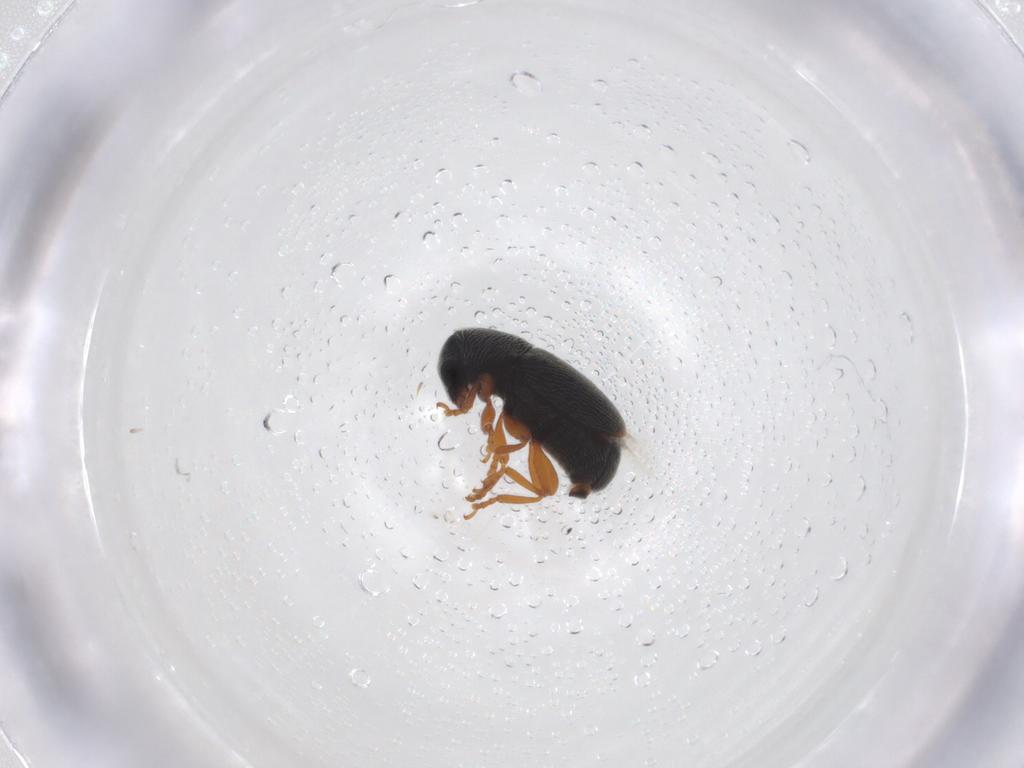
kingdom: Animalia
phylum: Arthropoda
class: Insecta
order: Coleoptera
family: Anthribidae
